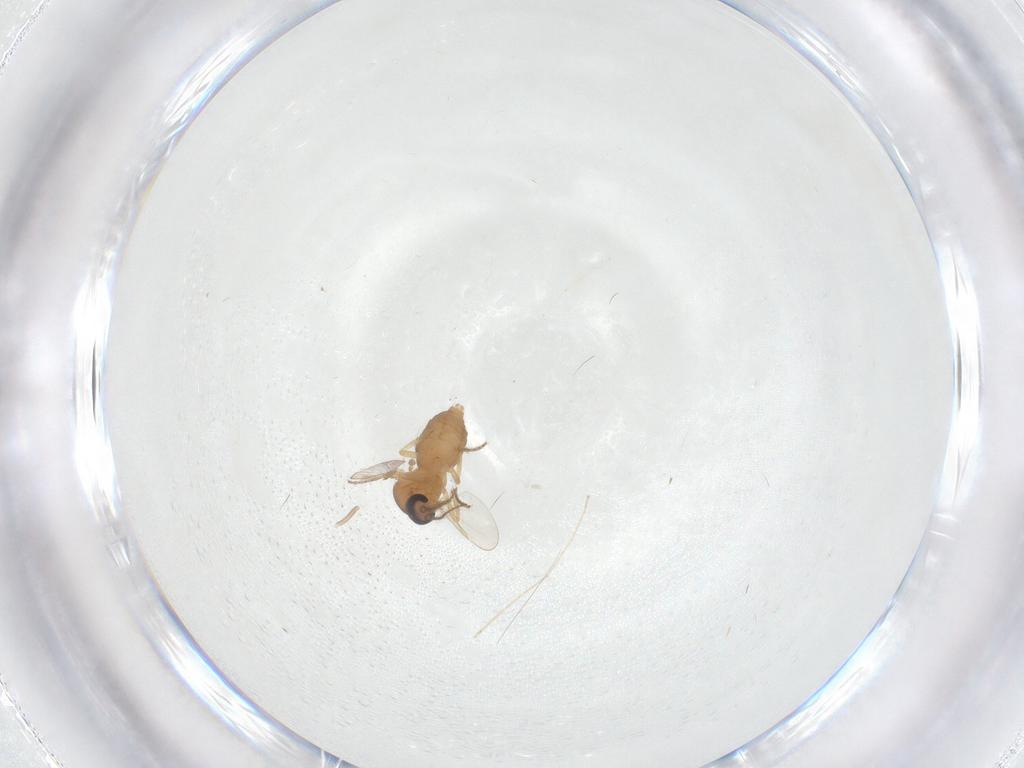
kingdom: Animalia
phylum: Arthropoda
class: Insecta
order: Diptera
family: Ceratopogonidae
